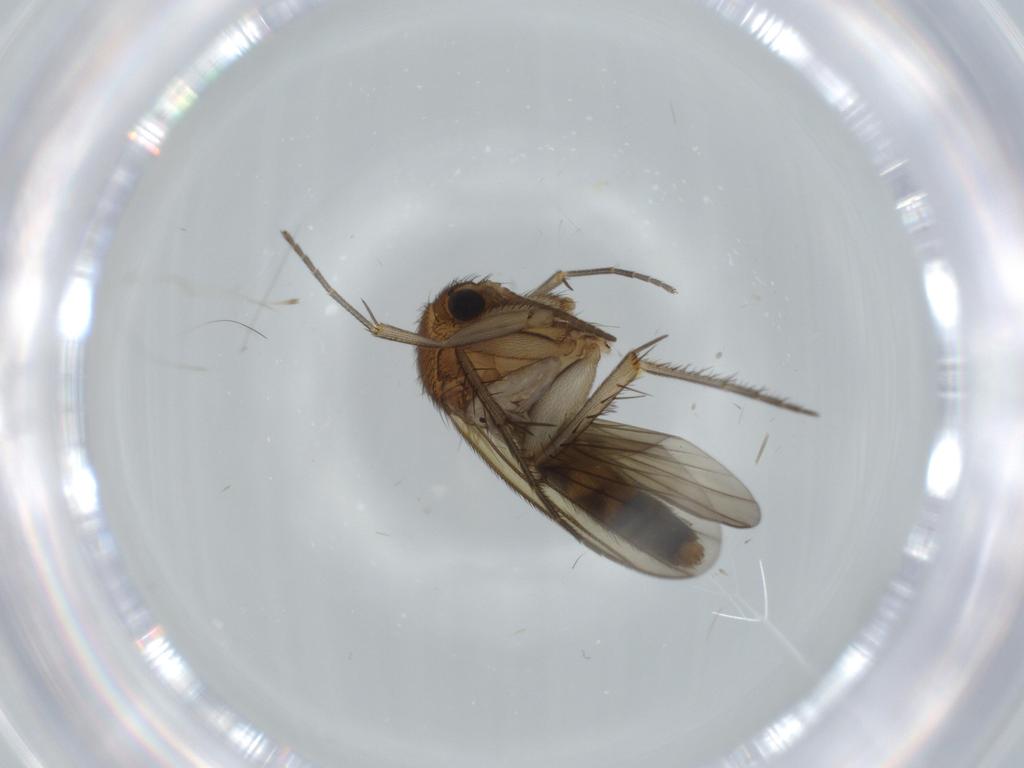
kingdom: Animalia
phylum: Arthropoda
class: Insecta
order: Diptera
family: Mycetophilidae
